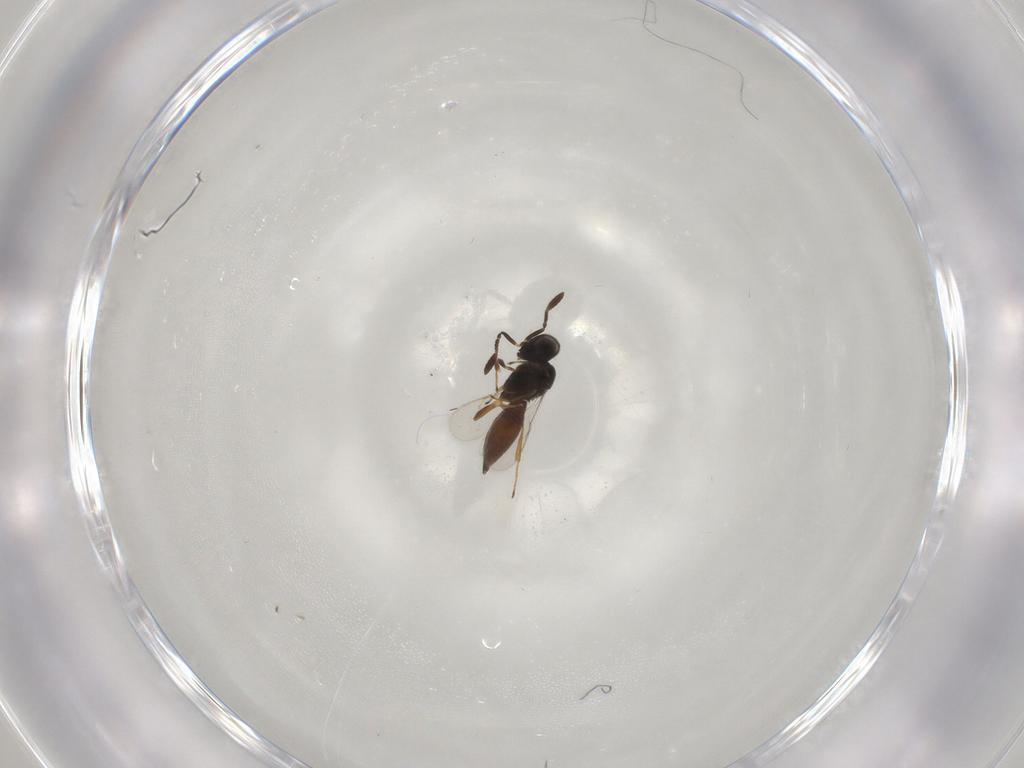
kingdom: Animalia
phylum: Arthropoda
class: Insecta
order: Hymenoptera
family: Scelionidae
